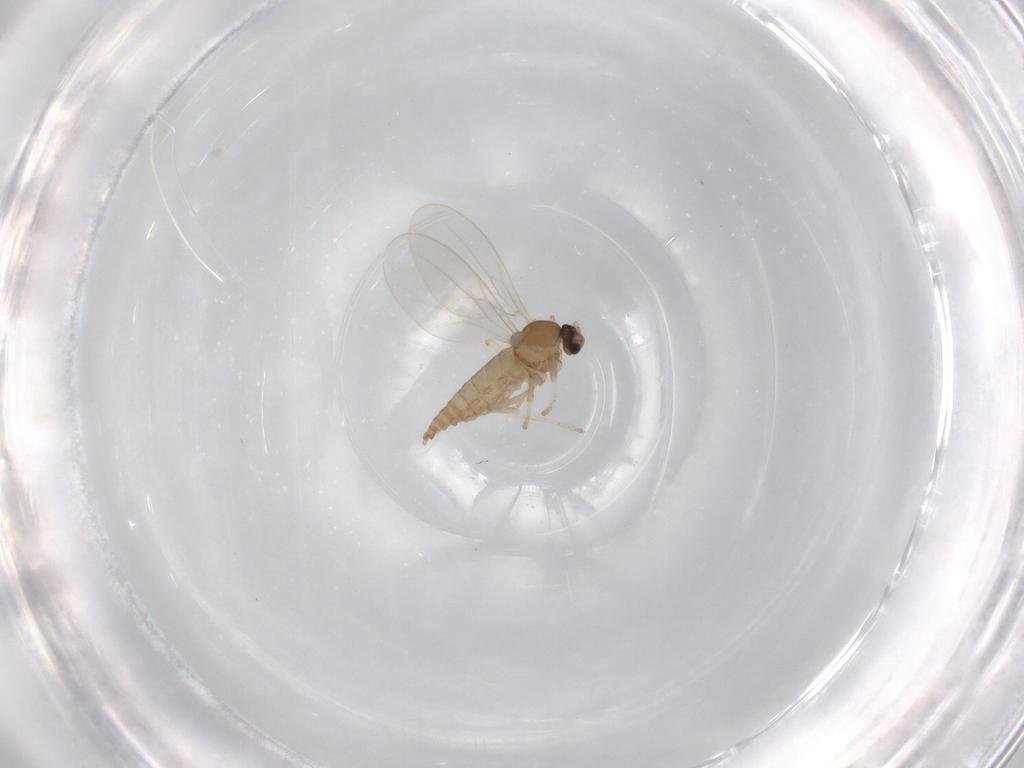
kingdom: Animalia
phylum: Arthropoda
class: Insecta
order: Diptera
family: Cecidomyiidae
